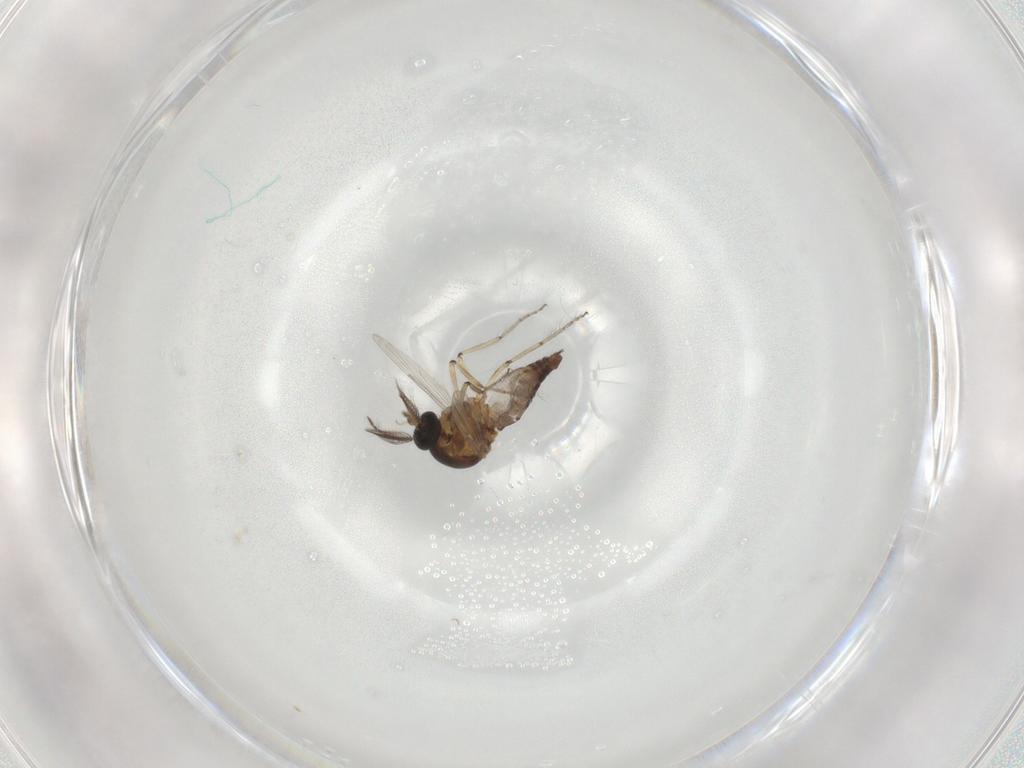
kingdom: Animalia
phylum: Arthropoda
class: Insecta
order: Diptera
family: Ceratopogonidae
